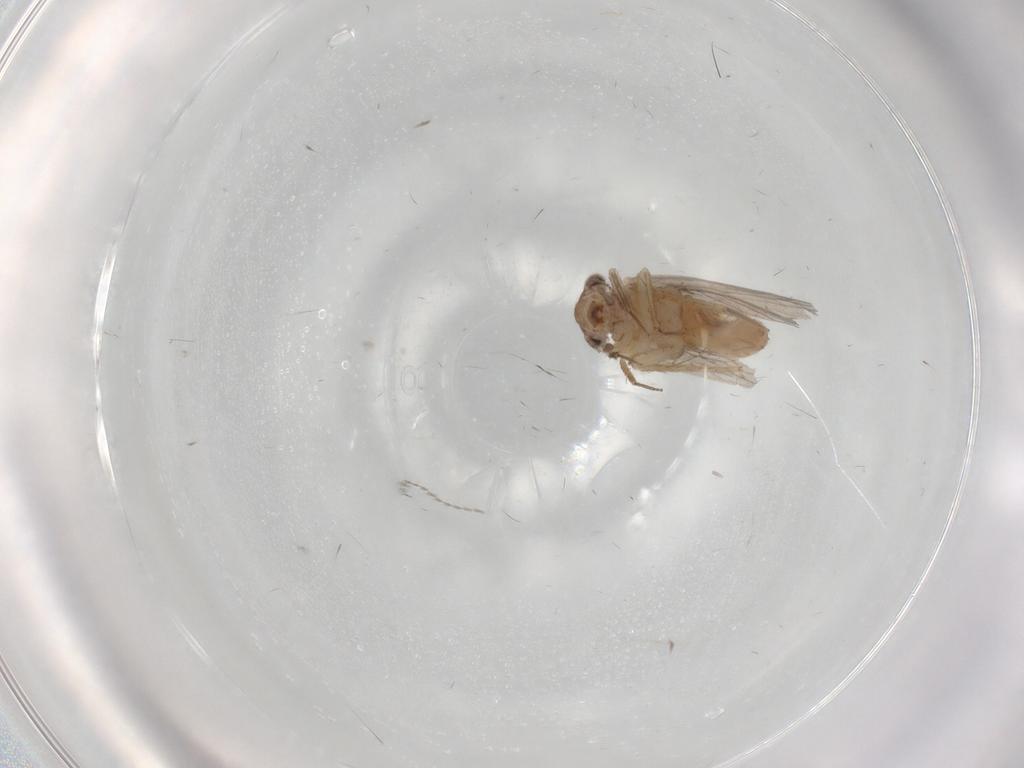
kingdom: Animalia
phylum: Arthropoda
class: Insecta
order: Psocodea
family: Lepidopsocidae
